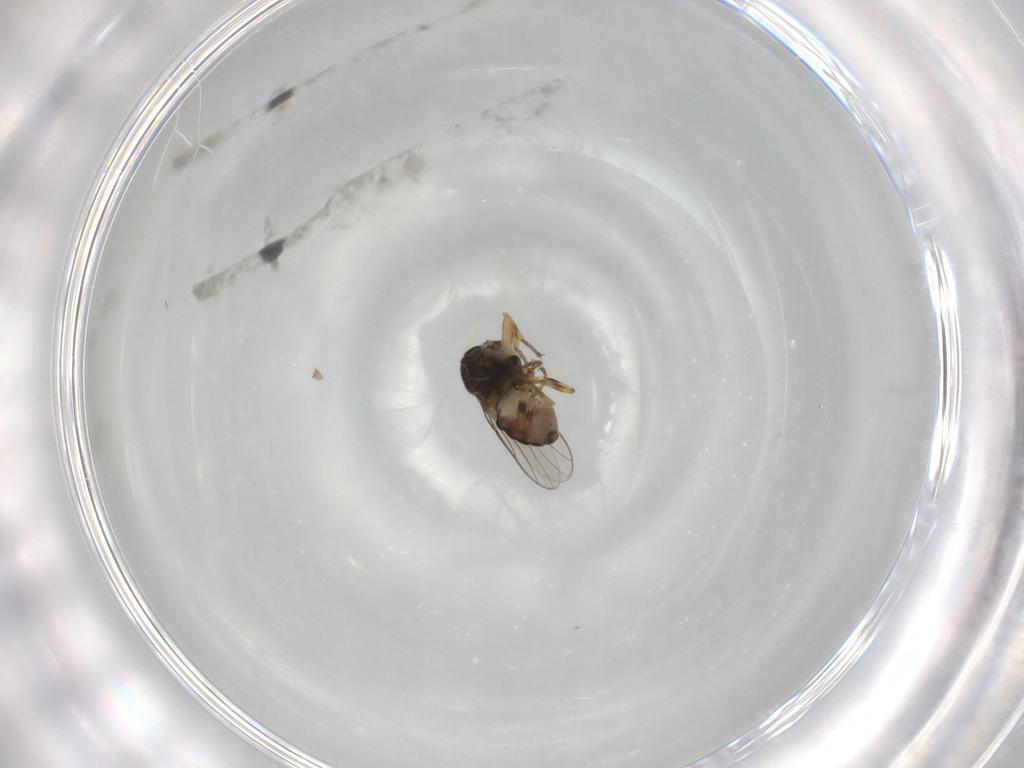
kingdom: Animalia
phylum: Arthropoda
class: Insecta
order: Diptera
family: Chloropidae
